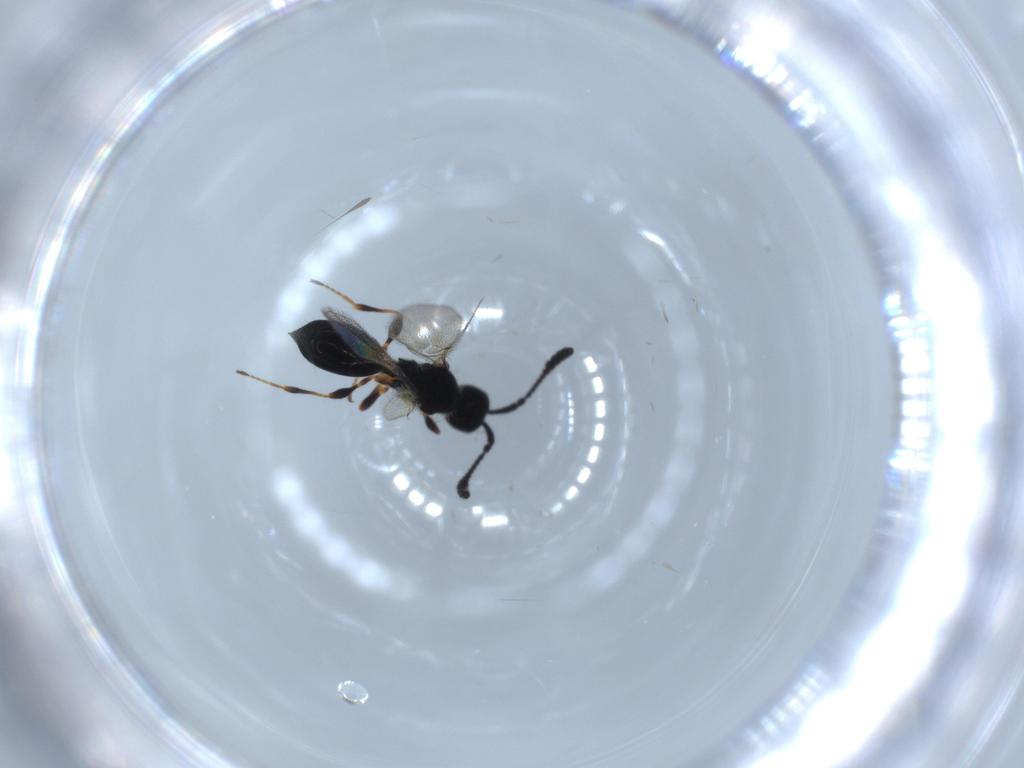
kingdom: Animalia
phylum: Arthropoda
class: Insecta
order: Hymenoptera
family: Diapriidae
